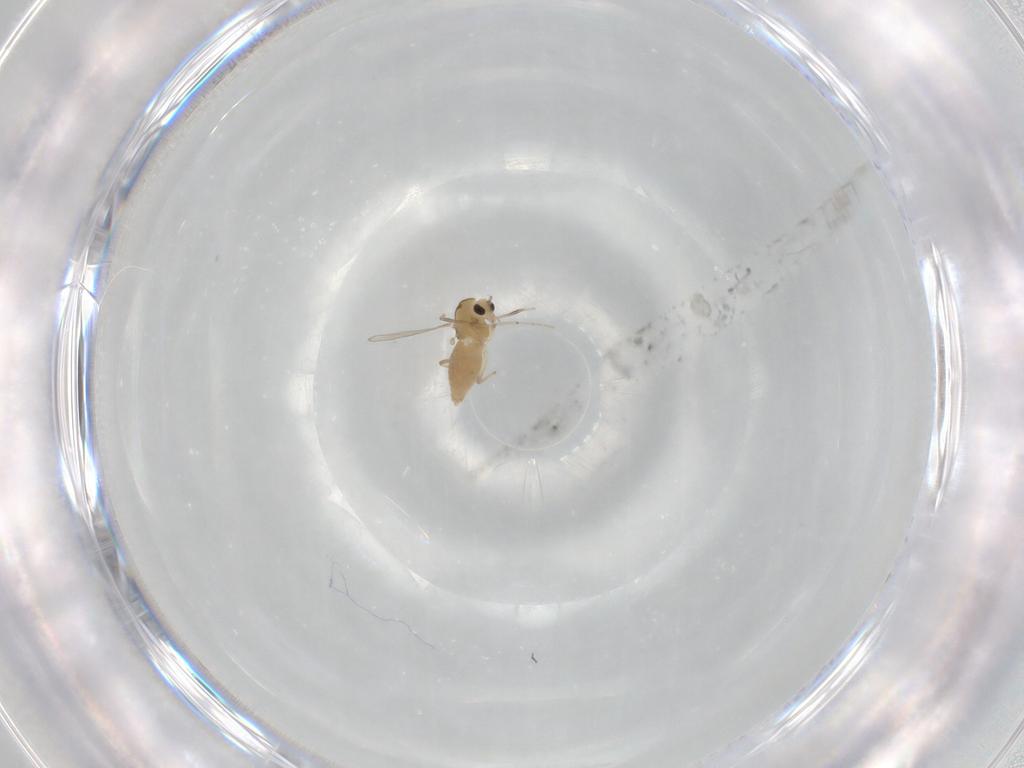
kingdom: Animalia
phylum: Arthropoda
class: Insecta
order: Diptera
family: Chironomidae
